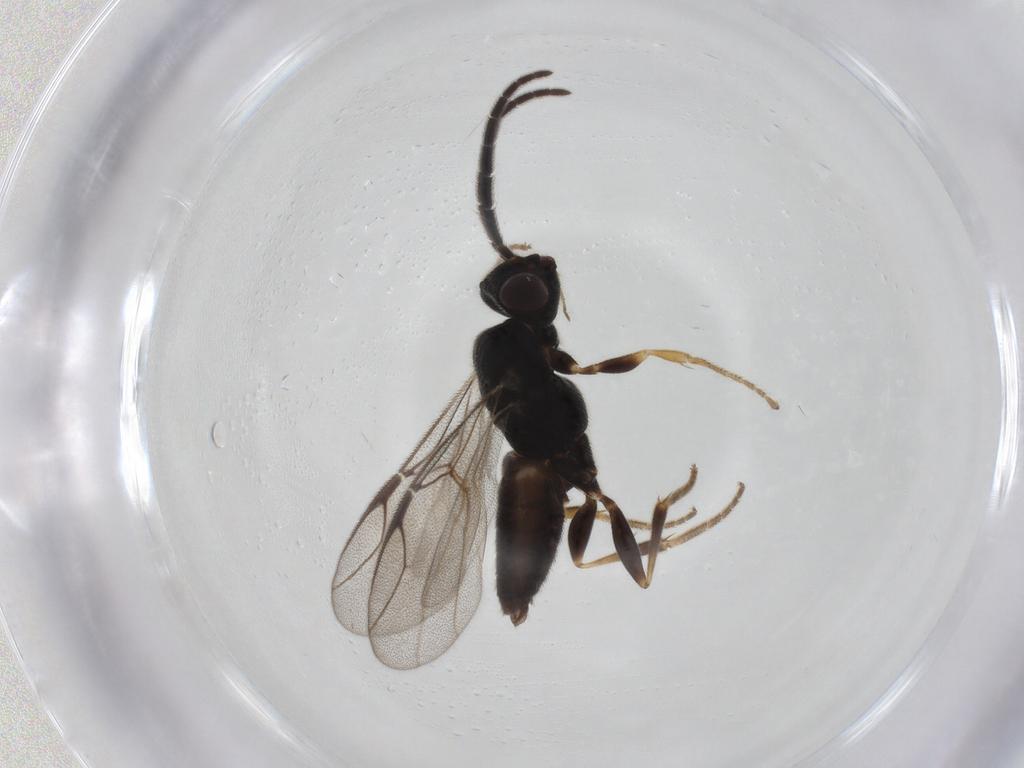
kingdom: Animalia
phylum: Arthropoda
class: Insecta
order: Hymenoptera
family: Dryinidae
